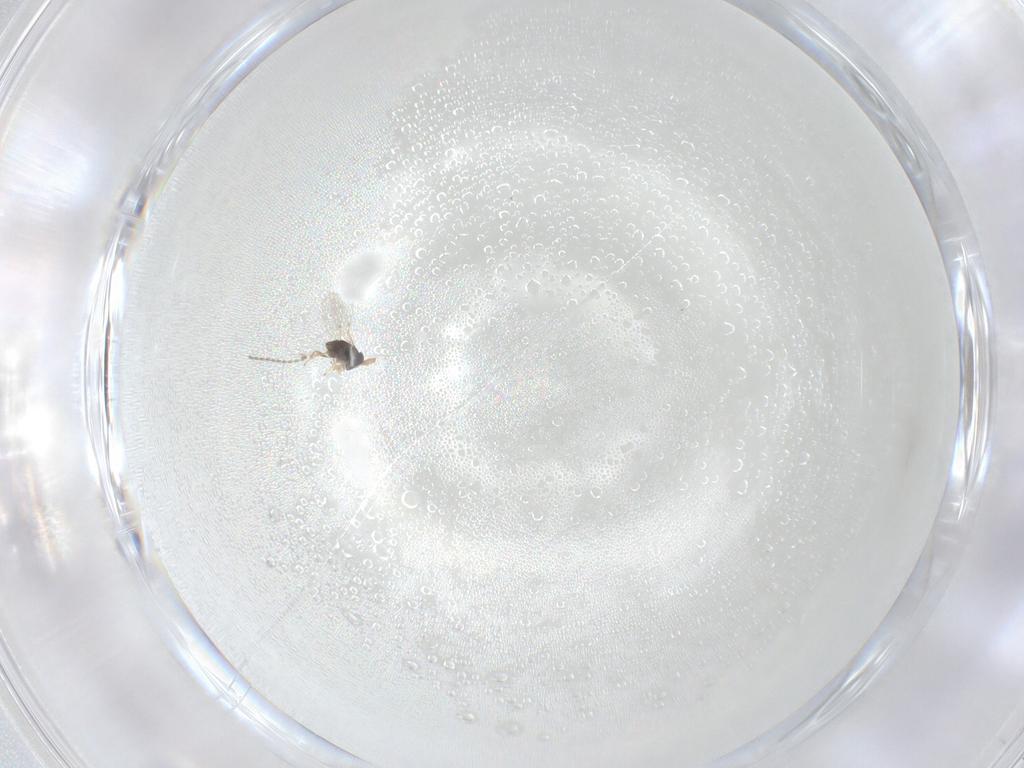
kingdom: Animalia
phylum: Arthropoda
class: Insecta
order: Hymenoptera
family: Encyrtidae
